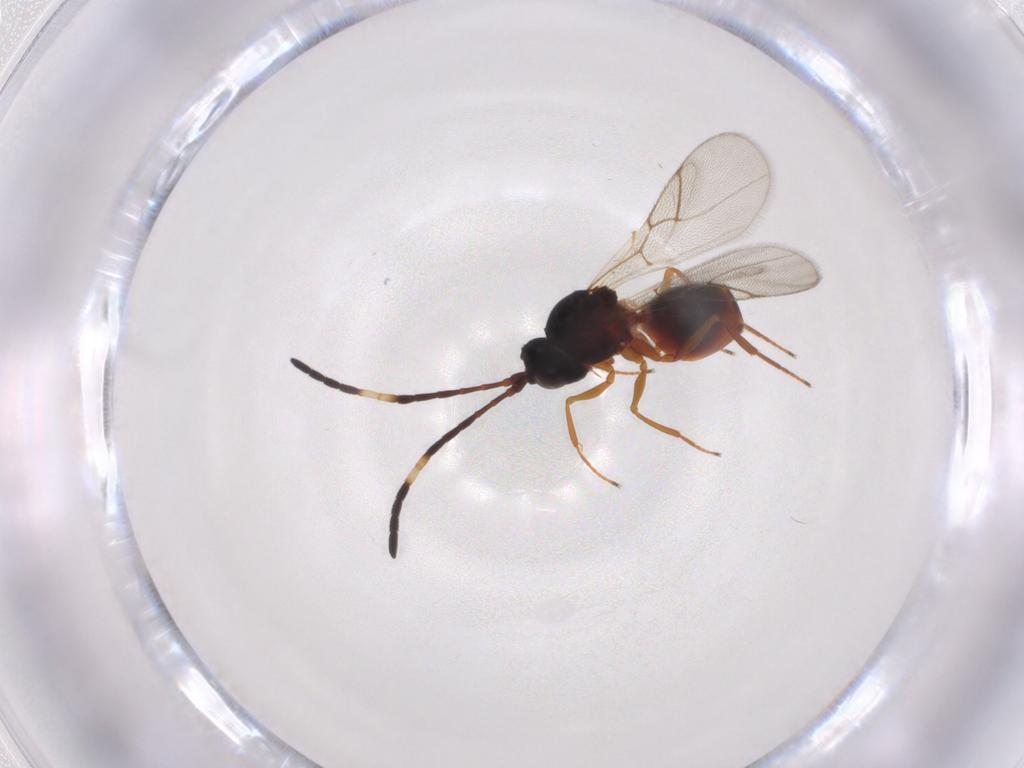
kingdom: Animalia
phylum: Arthropoda
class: Insecta
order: Hymenoptera
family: Figitidae
